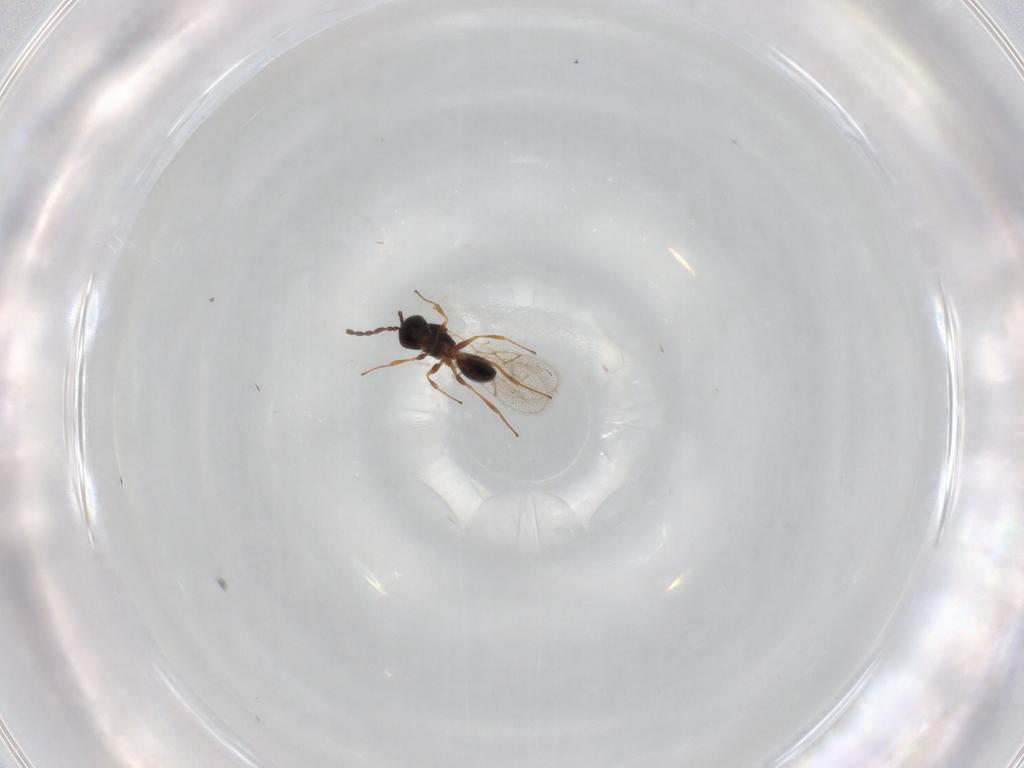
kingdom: Animalia
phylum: Arthropoda
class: Insecta
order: Hymenoptera
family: Figitidae
